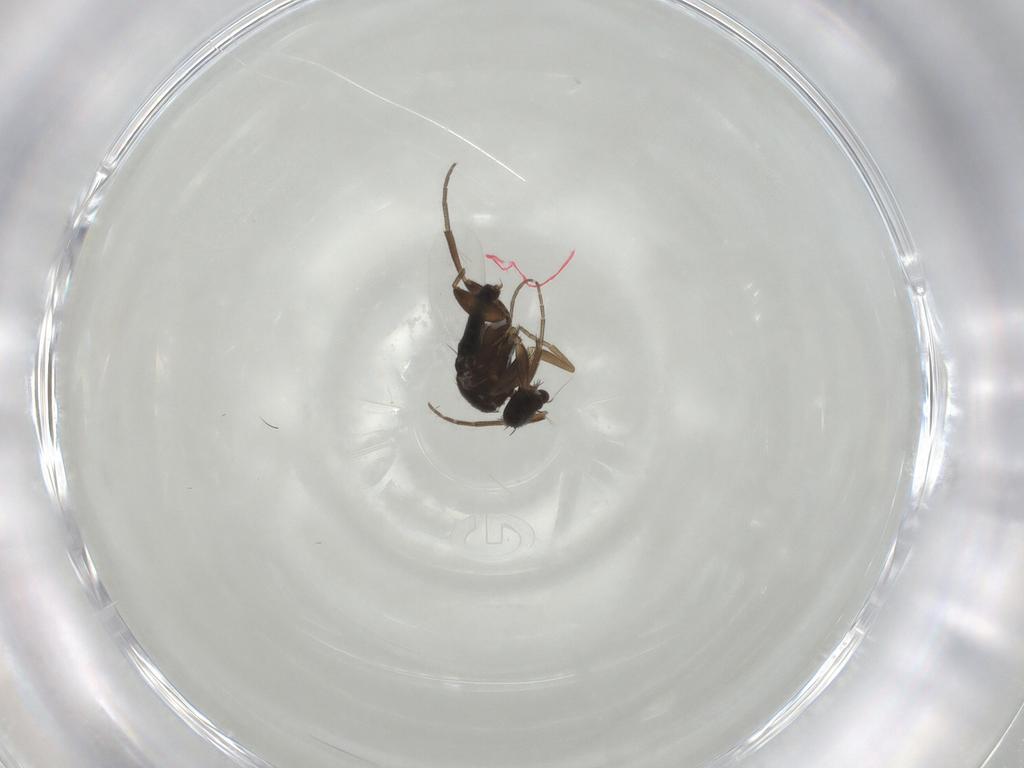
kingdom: Animalia
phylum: Arthropoda
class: Insecta
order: Diptera
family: Phoridae
